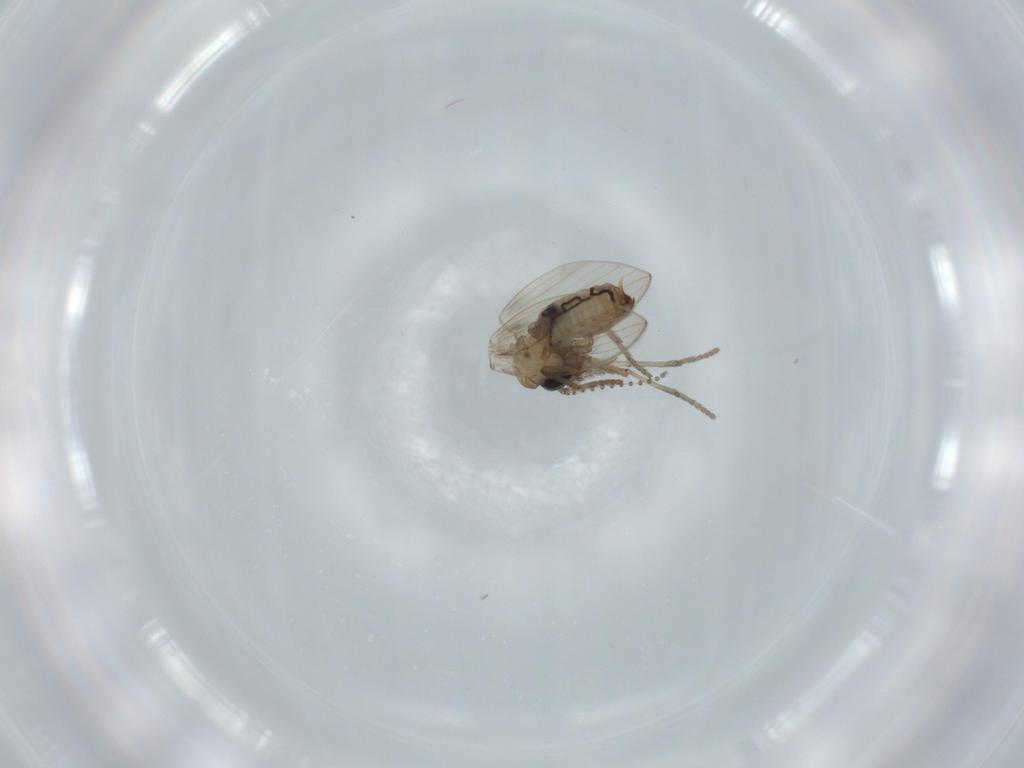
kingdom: Animalia
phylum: Arthropoda
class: Insecta
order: Diptera
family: Psychodidae
